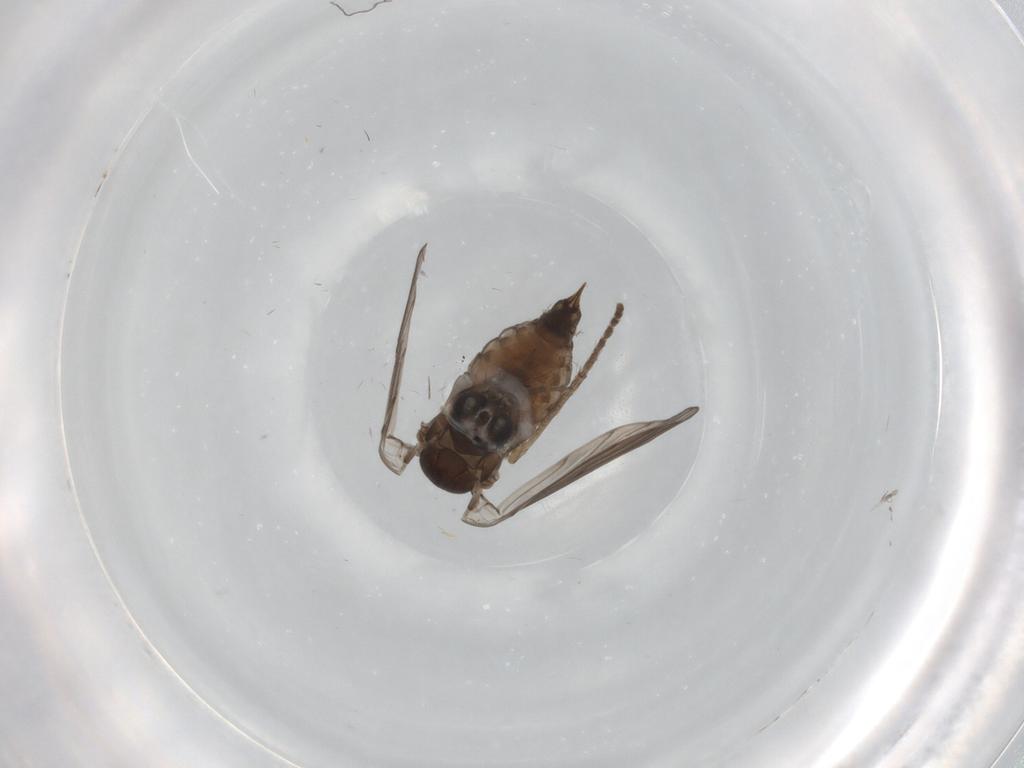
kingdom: Animalia
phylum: Arthropoda
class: Insecta
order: Diptera
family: Psychodidae
